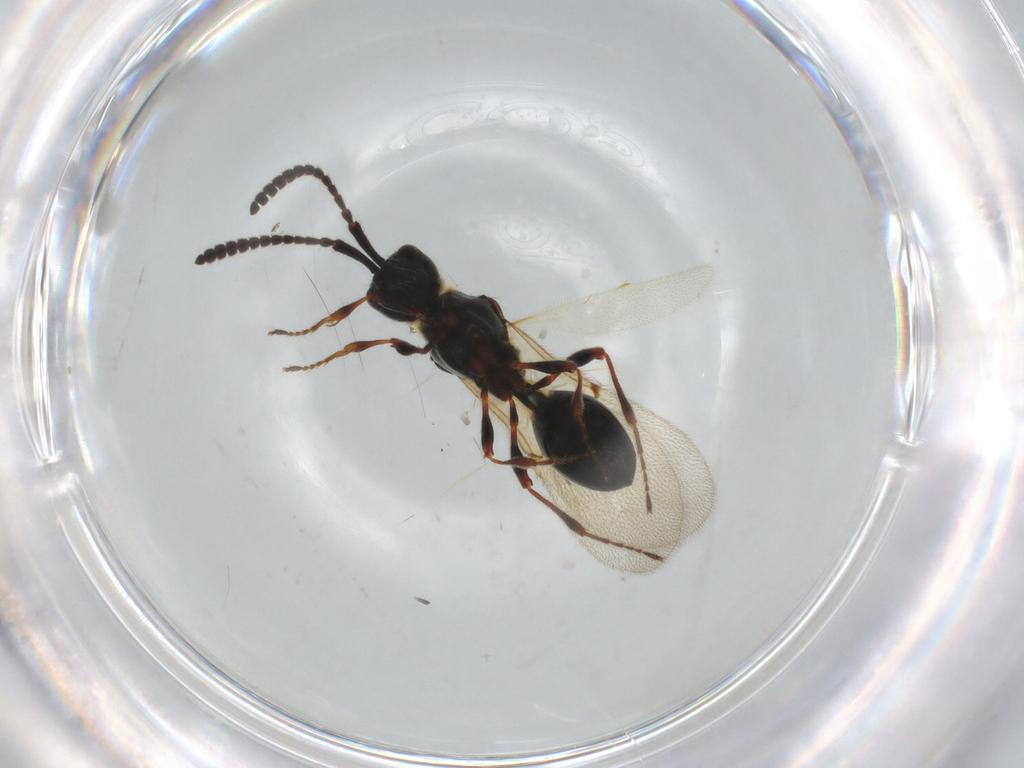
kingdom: Animalia
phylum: Arthropoda
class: Insecta
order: Hymenoptera
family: Diapriidae
